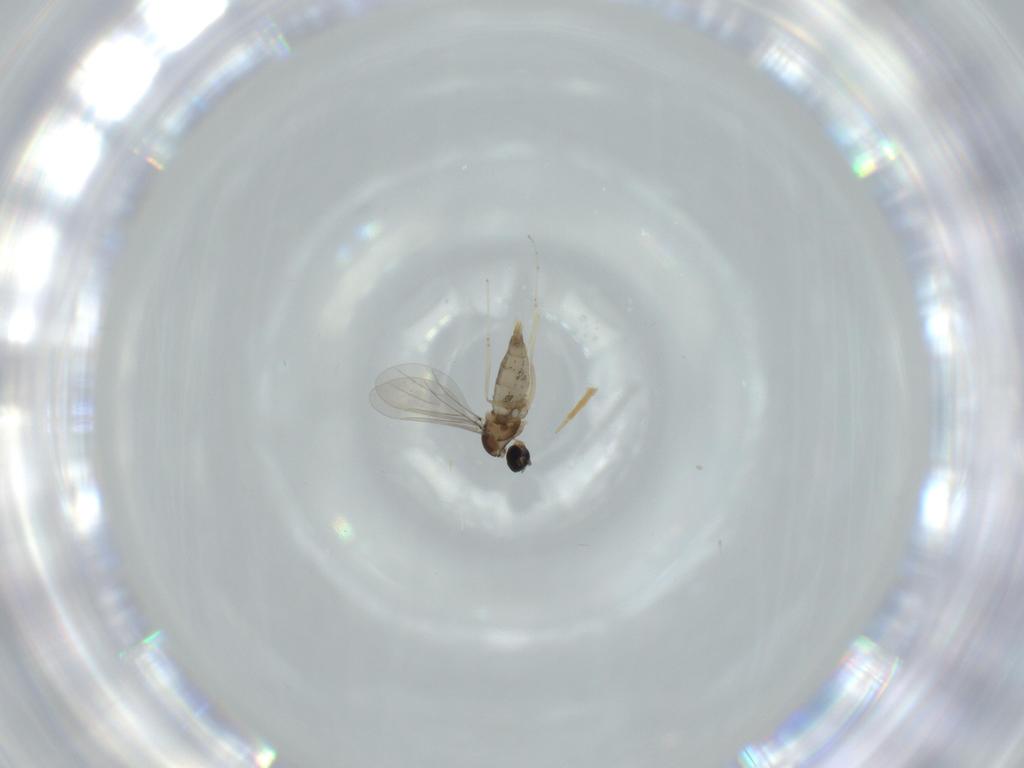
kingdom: Animalia
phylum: Arthropoda
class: Insecta
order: Diptera
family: Cecidomyiidae
